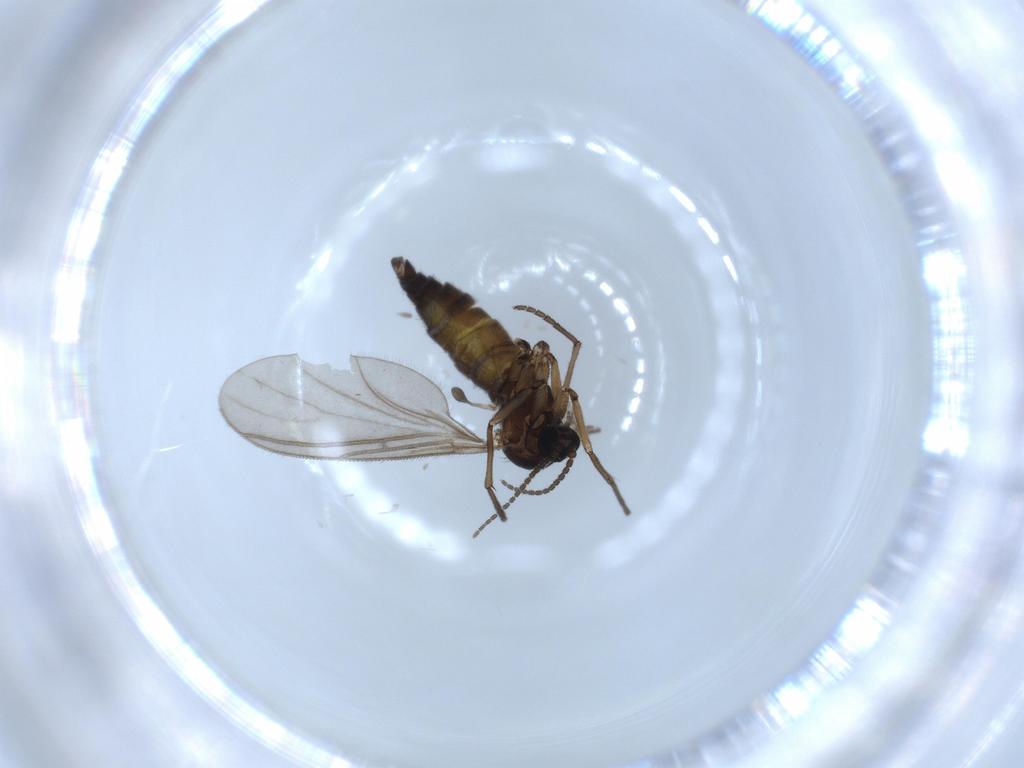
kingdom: Animalia
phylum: Arthropoda
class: Insecta
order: Diptera
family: Sciaridae
